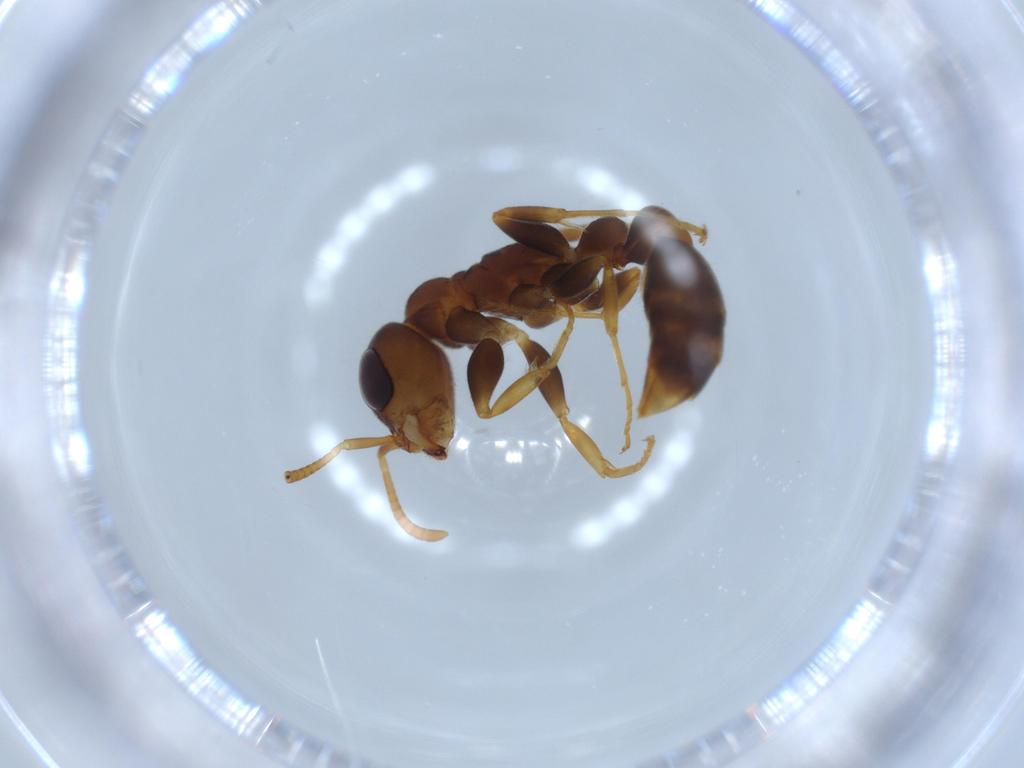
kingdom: Animalia
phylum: Arthropoda
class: Insecta
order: Hymenoptera
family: Formicidae
